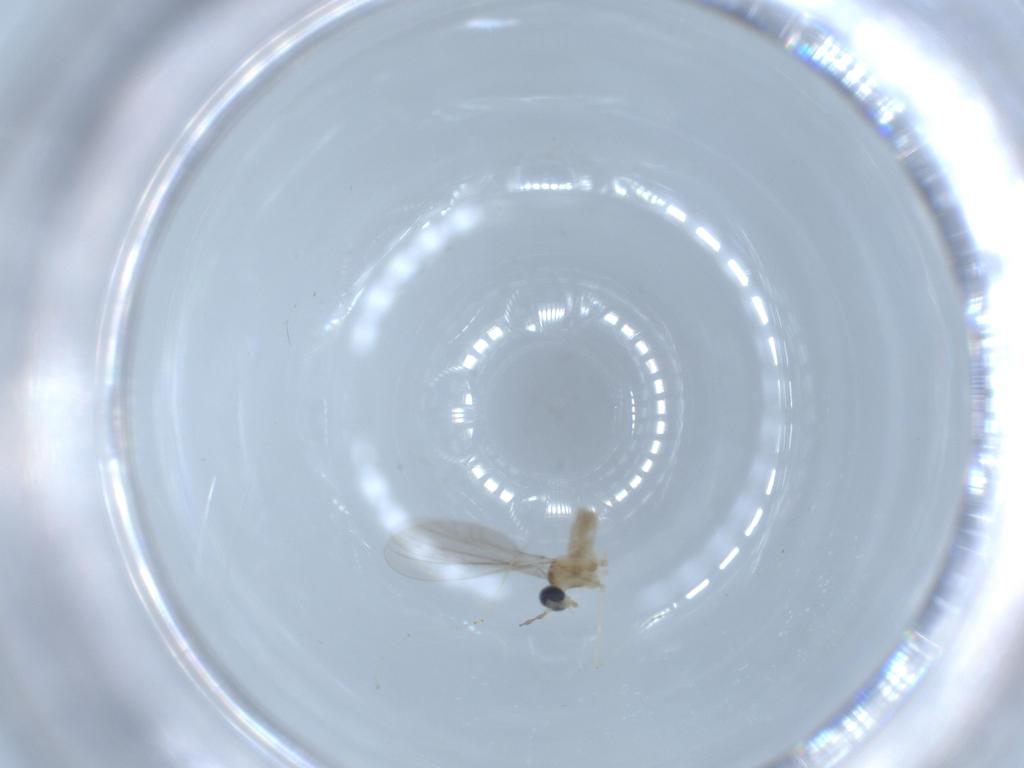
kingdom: Animalia
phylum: Arthropoda
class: Insecta
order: Diptera
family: Cecidomyiidae
